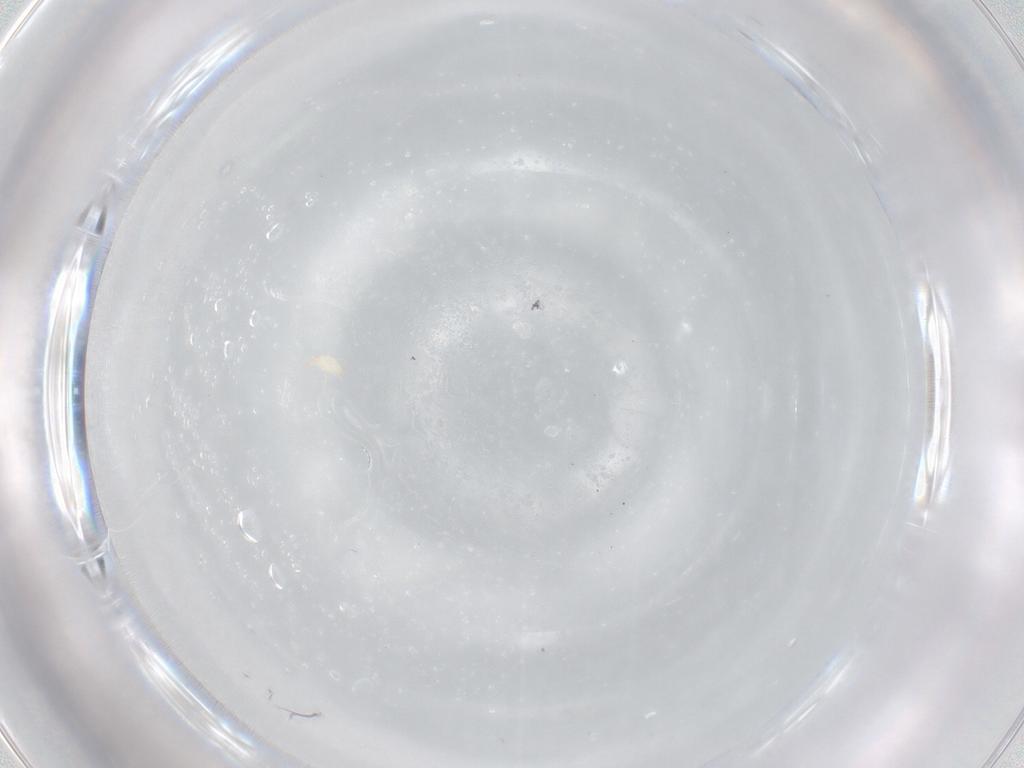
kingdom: Animalia
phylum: Arthropoda
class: Arachnida
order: Trombidiformes
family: Microtrombidiidae
